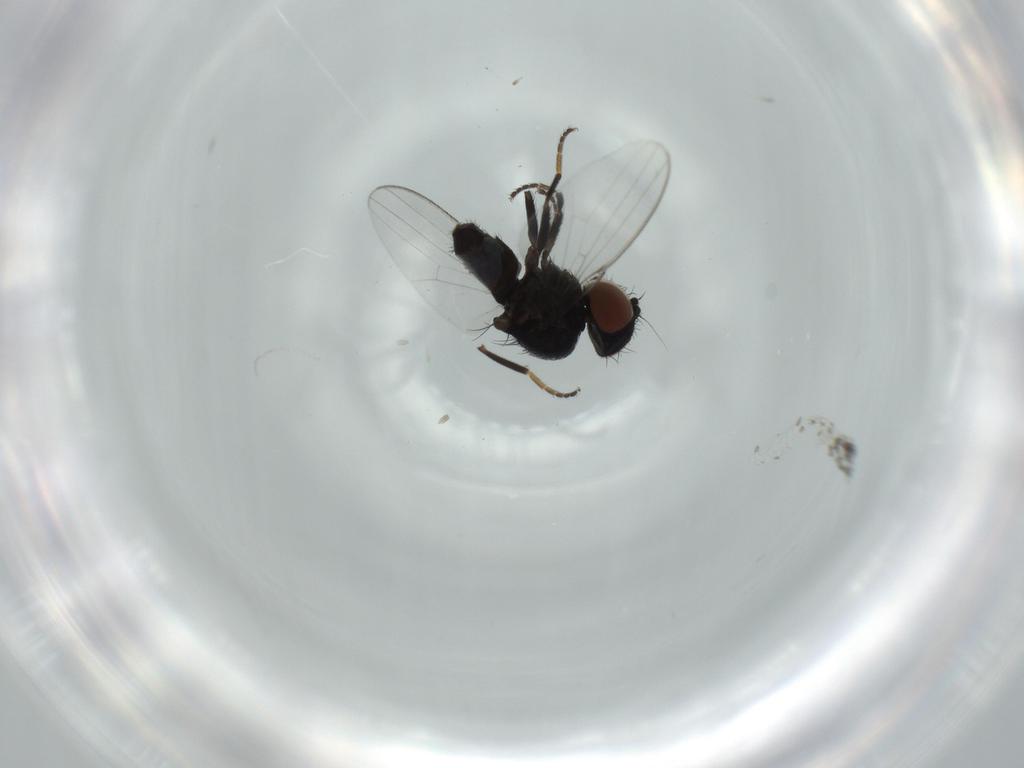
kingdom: Animalia
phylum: Arthropoda
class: Insecta
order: Diptera
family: Milichiidae
